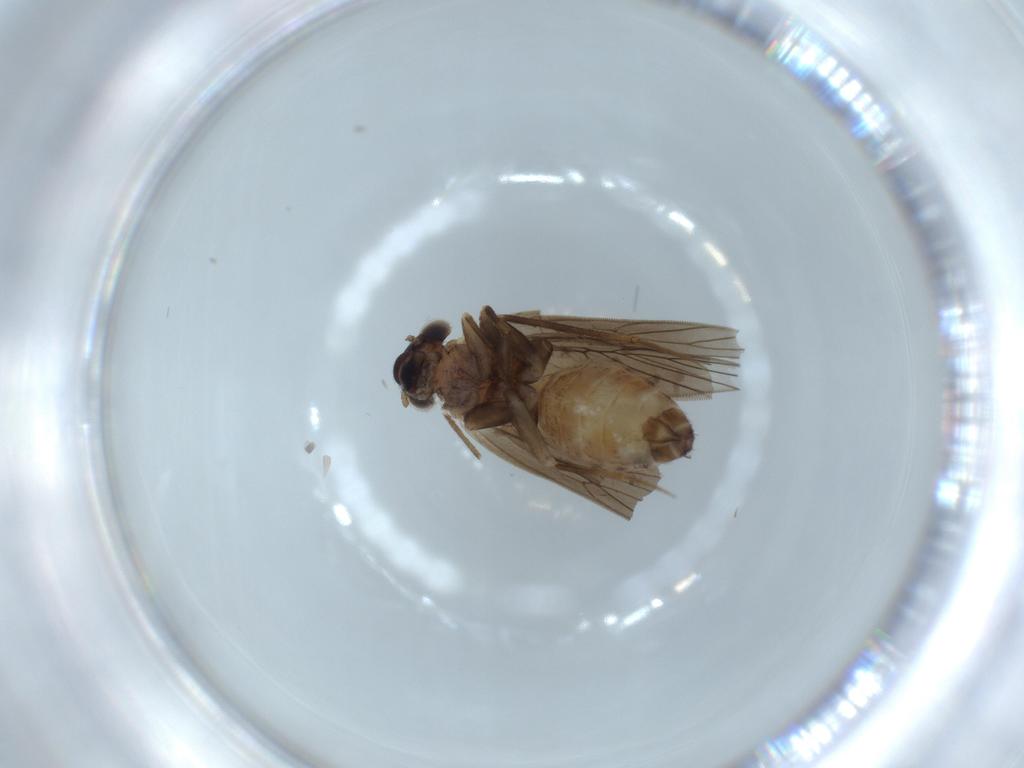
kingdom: Animalia
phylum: Arthropoda
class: Insecta
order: Psocodea
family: Lepidopsocidae
